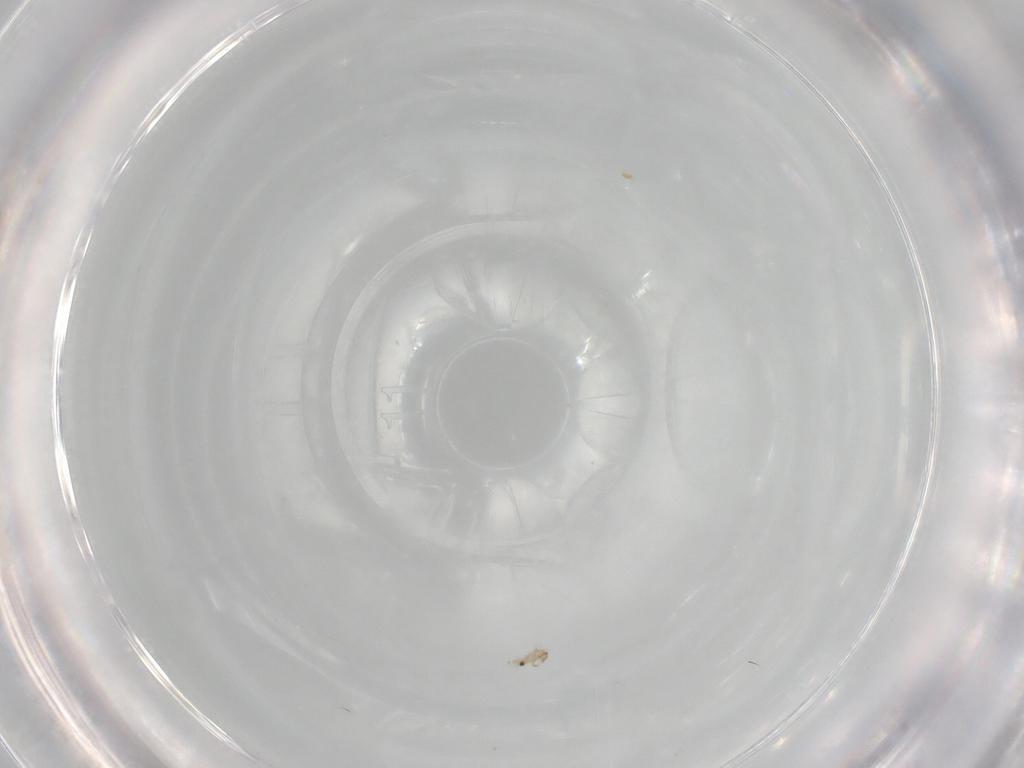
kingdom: Animalia
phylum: Arthropoda
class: Arachnida
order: Sarcoptiformes
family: Humerobatidae
